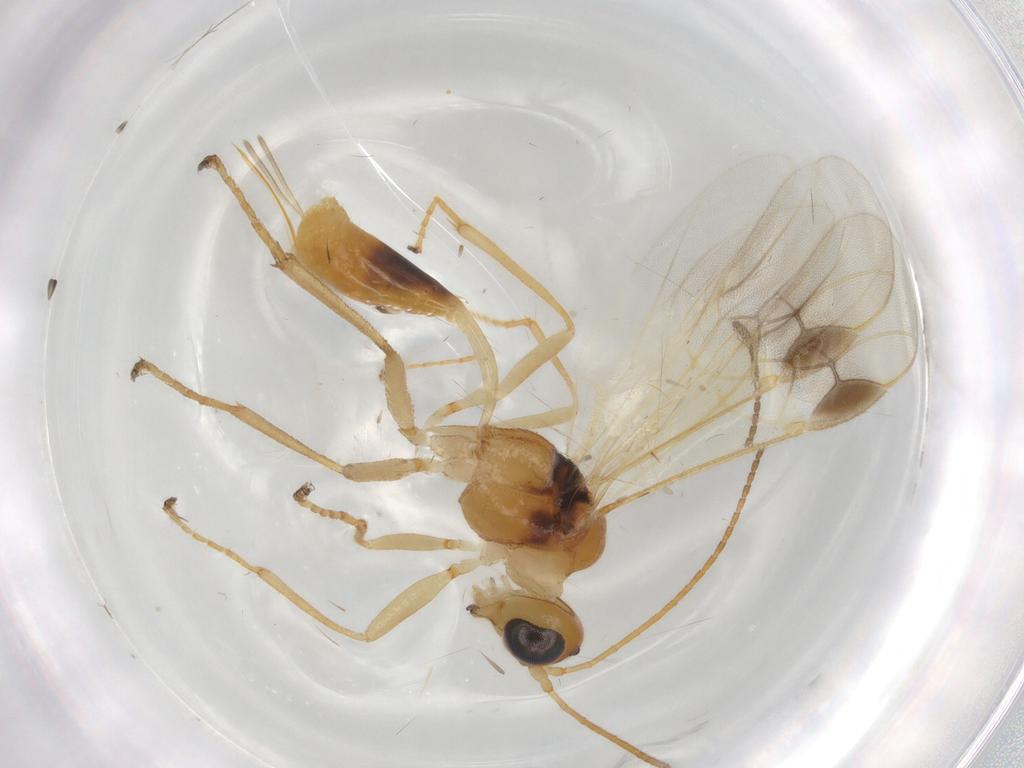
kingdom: Animalia
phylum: Arthropoda
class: Insecta
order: Hymenoptera
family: Braconidae
